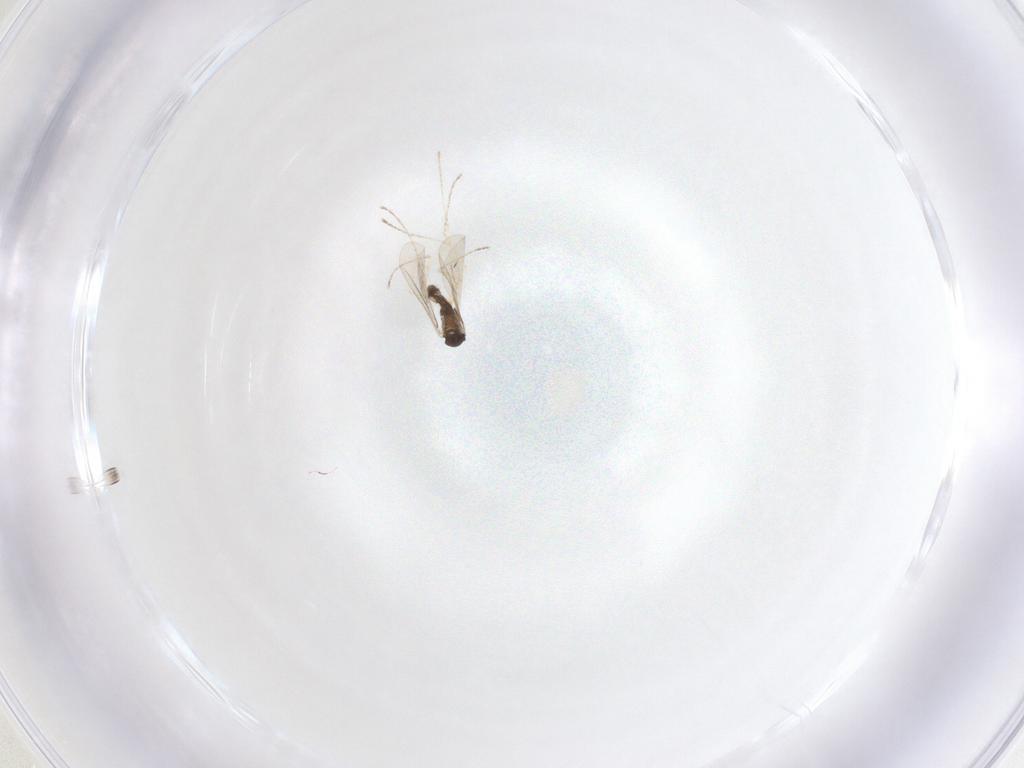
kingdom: Animalia
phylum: Arthropoda
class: Insecta
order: Diptera
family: Cecidomyiidae
